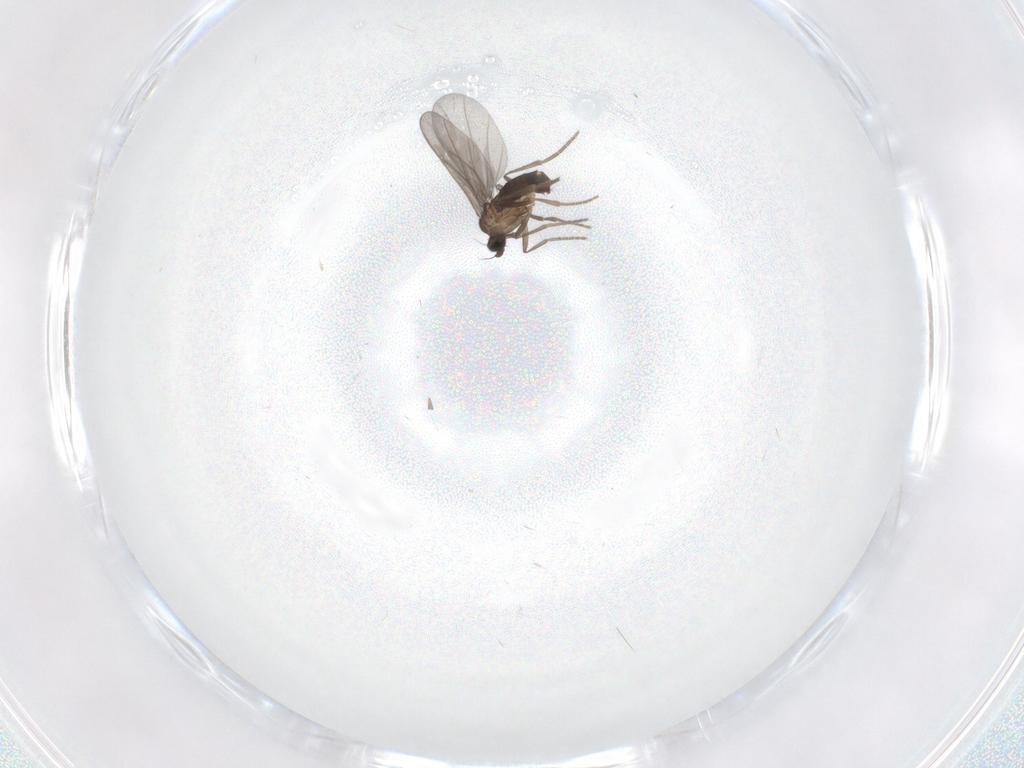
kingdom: Animalia
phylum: Arthropoda
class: Insecta
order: Diptera
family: Phoridae
